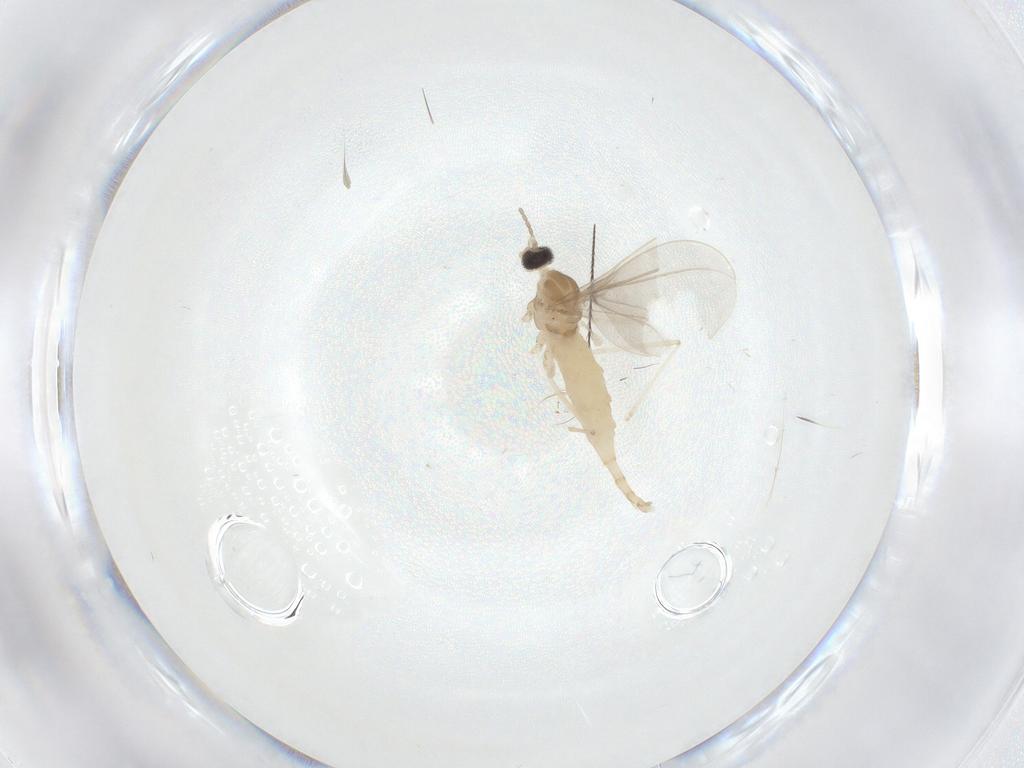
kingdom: Animalia
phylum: Arthropoda
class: Insecta
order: Diptera
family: Cecidomyiidae
